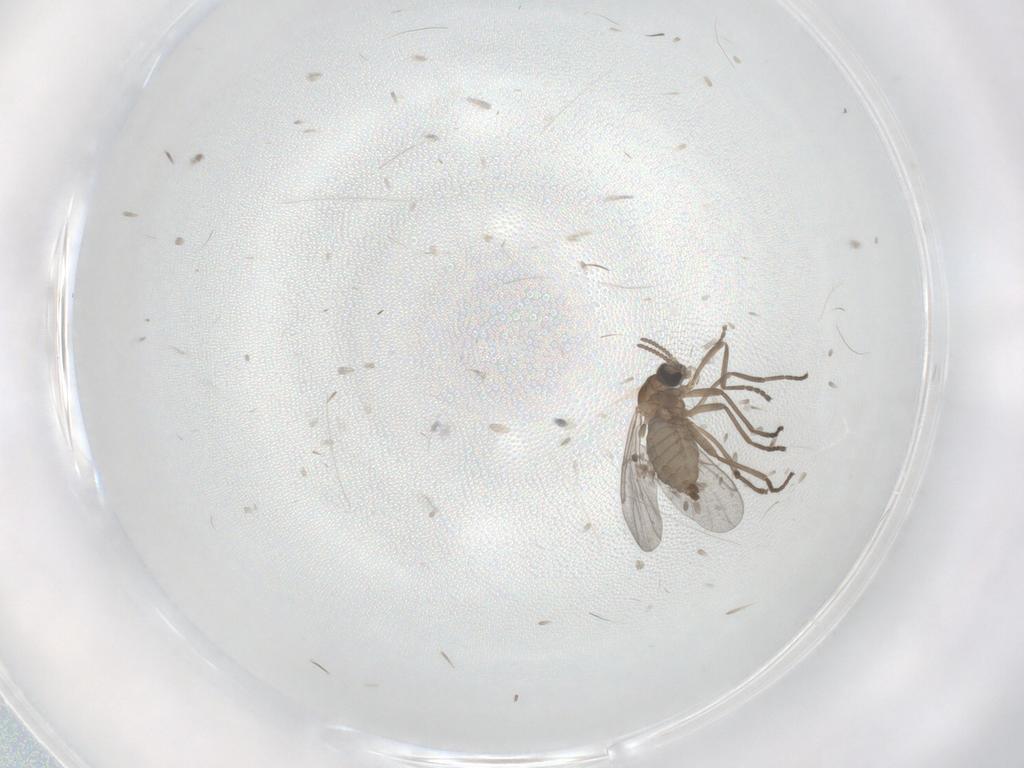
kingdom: Animalia
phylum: Arthropoda
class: Insecta
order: Diptera
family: Cecidomyiidae
